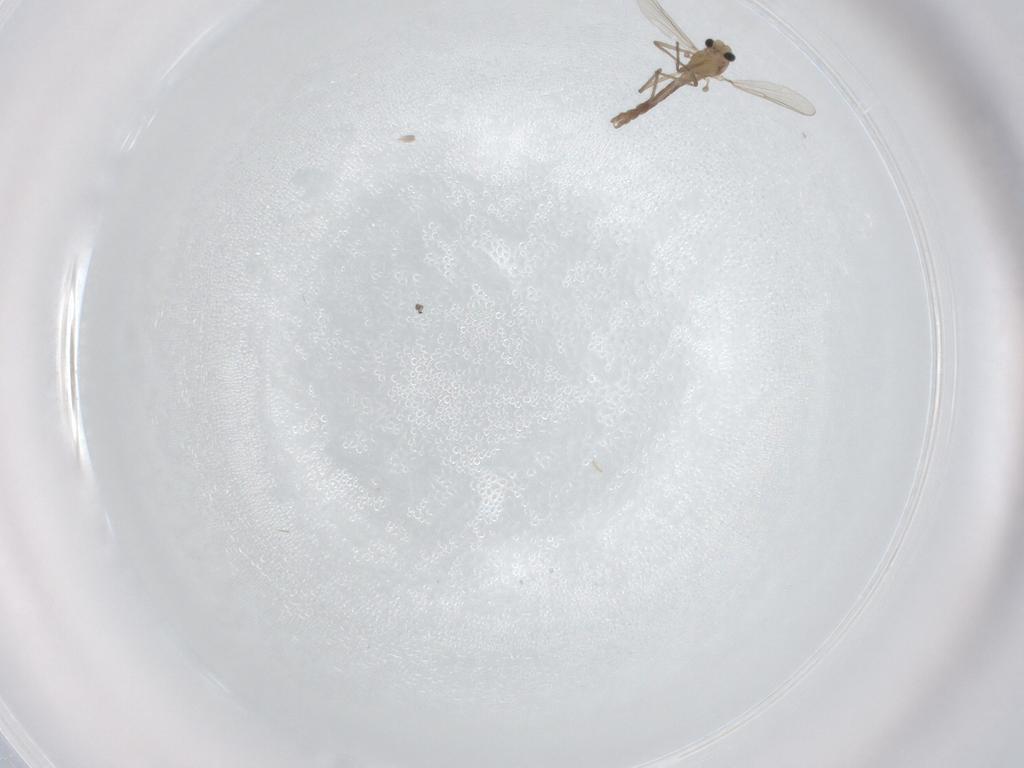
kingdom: Animalia
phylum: Arthropoda
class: Insecta
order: Diptera
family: Chironomidae
